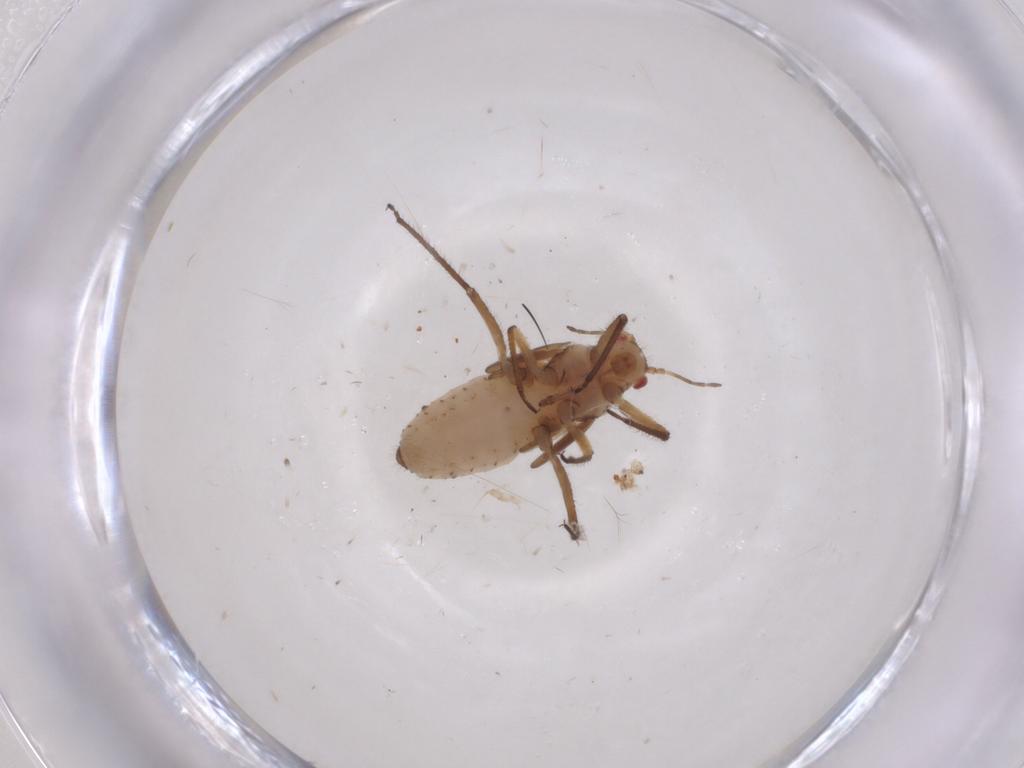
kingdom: Animalia
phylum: Arthropoda
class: Insecta
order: Hemiptera
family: Aphididae
